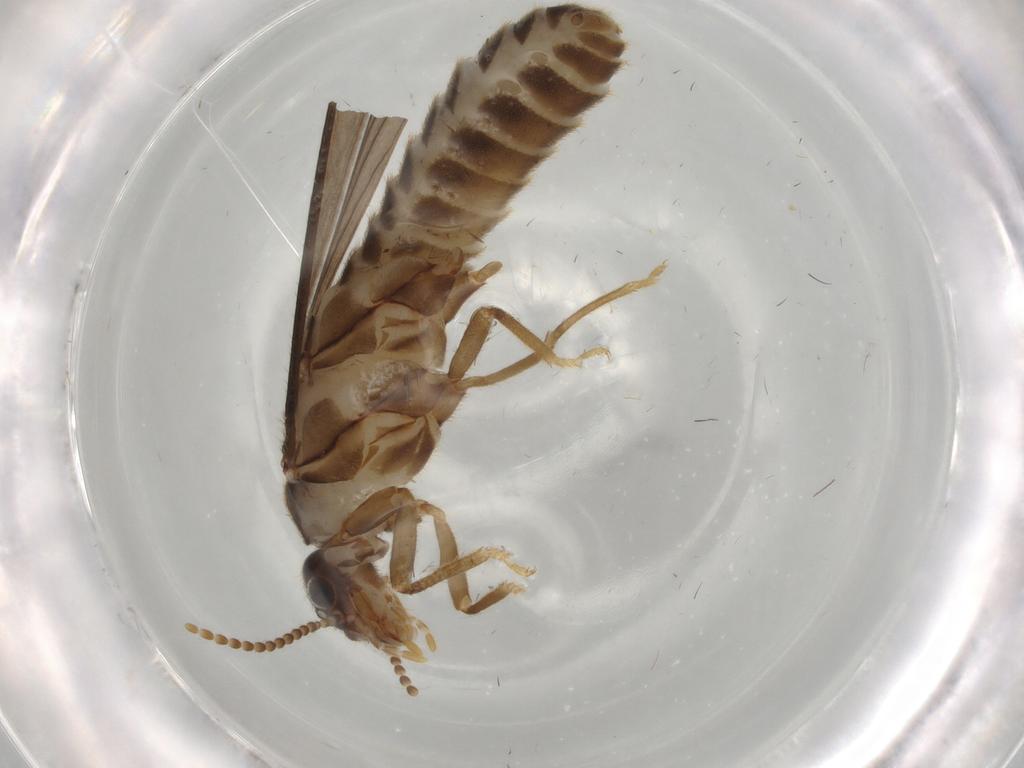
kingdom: Animalia
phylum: Arthropoda
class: Insecta
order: Blattodea
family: Termitidae
